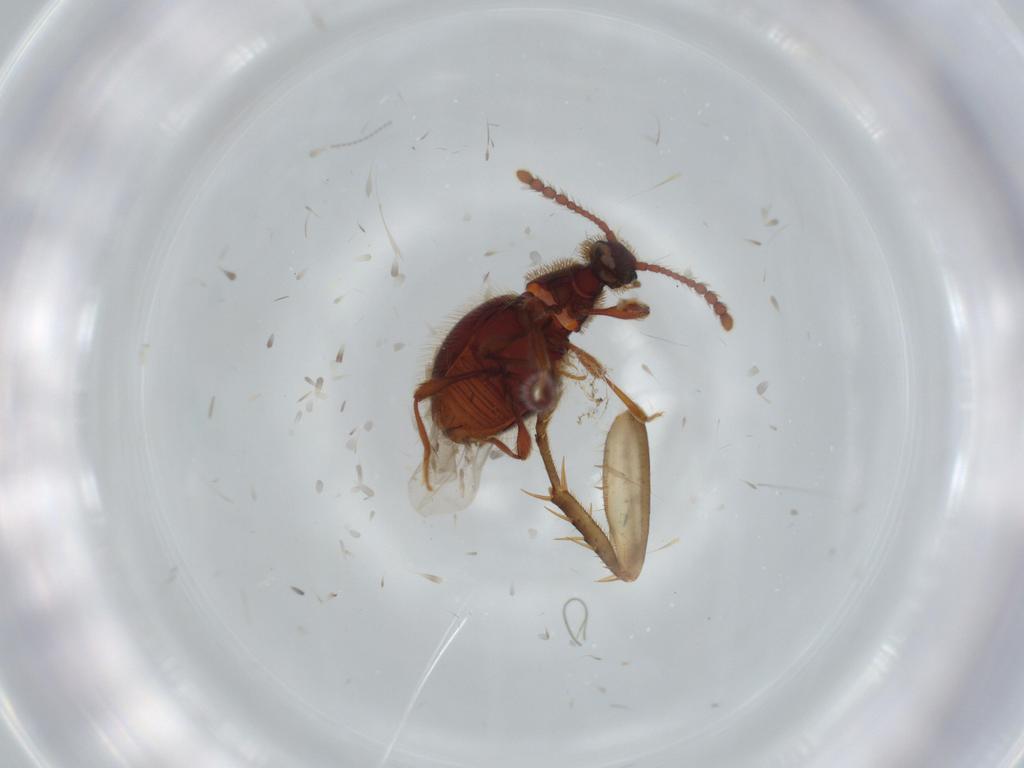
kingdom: Animalia
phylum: Arthropoda
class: Insecta
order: Coleoptera
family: Staphylinidae
